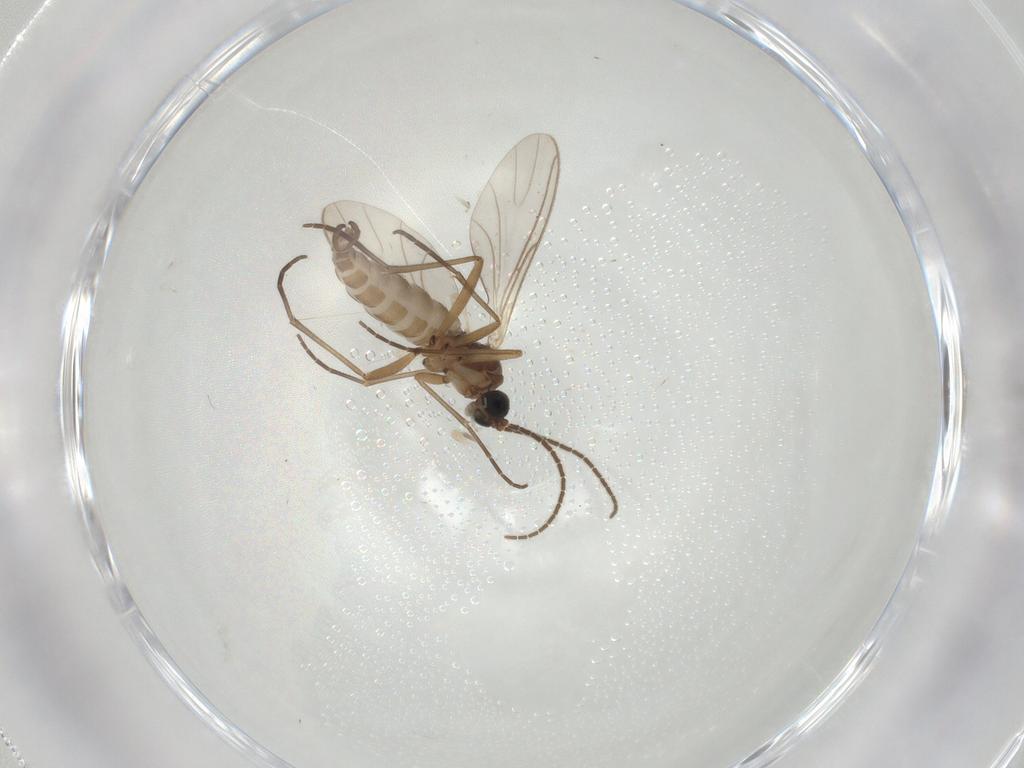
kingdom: Animalia
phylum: Arthropoda
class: Insecta
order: Diptera
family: Sciaridae
